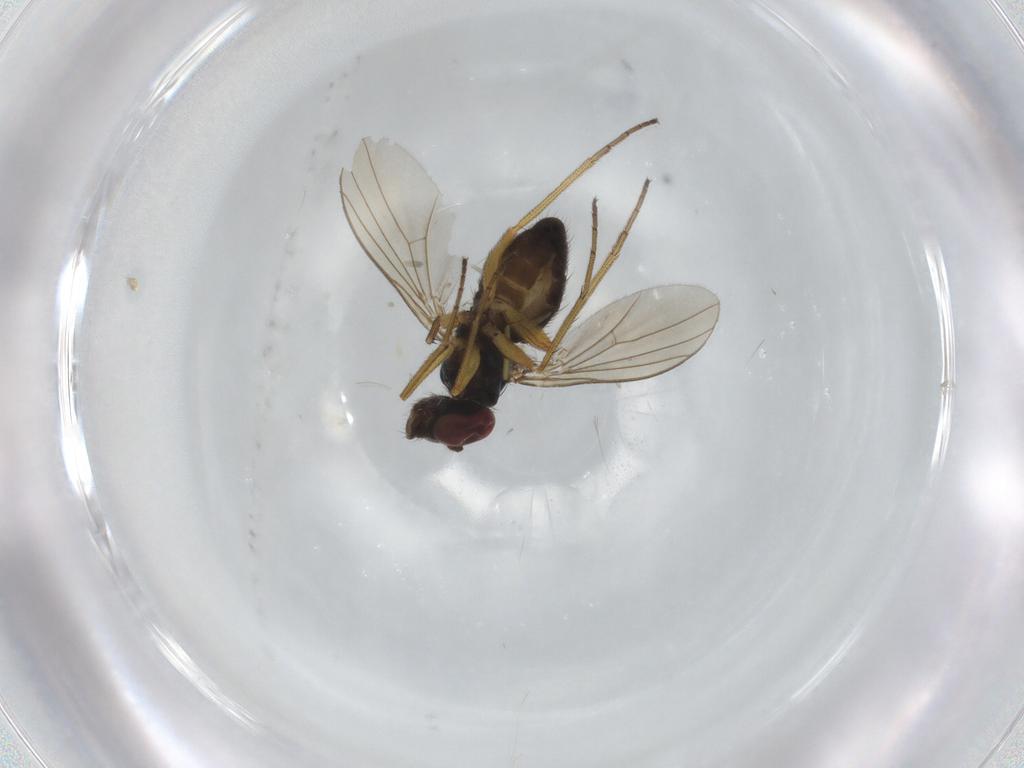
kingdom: Animalia
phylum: Arthropoda
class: Insecta
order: Diptera
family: Dolichopodidae
